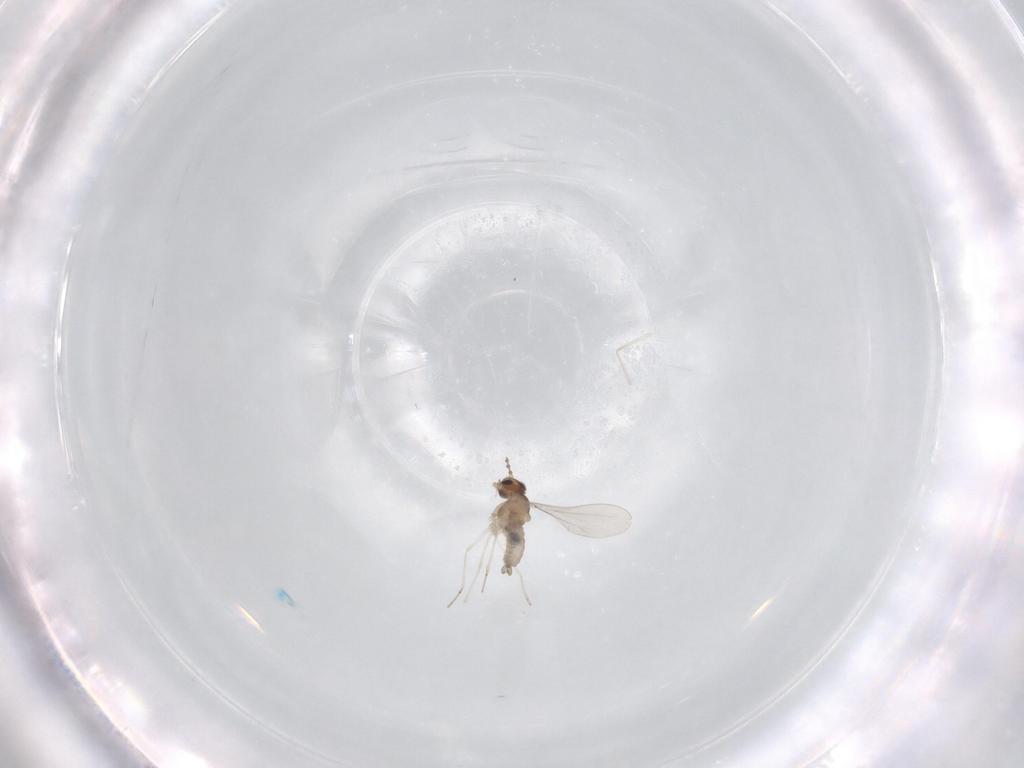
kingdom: Animalia
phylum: Arthropoda
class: Insecta
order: Diptera
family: Cecidomyiidae
